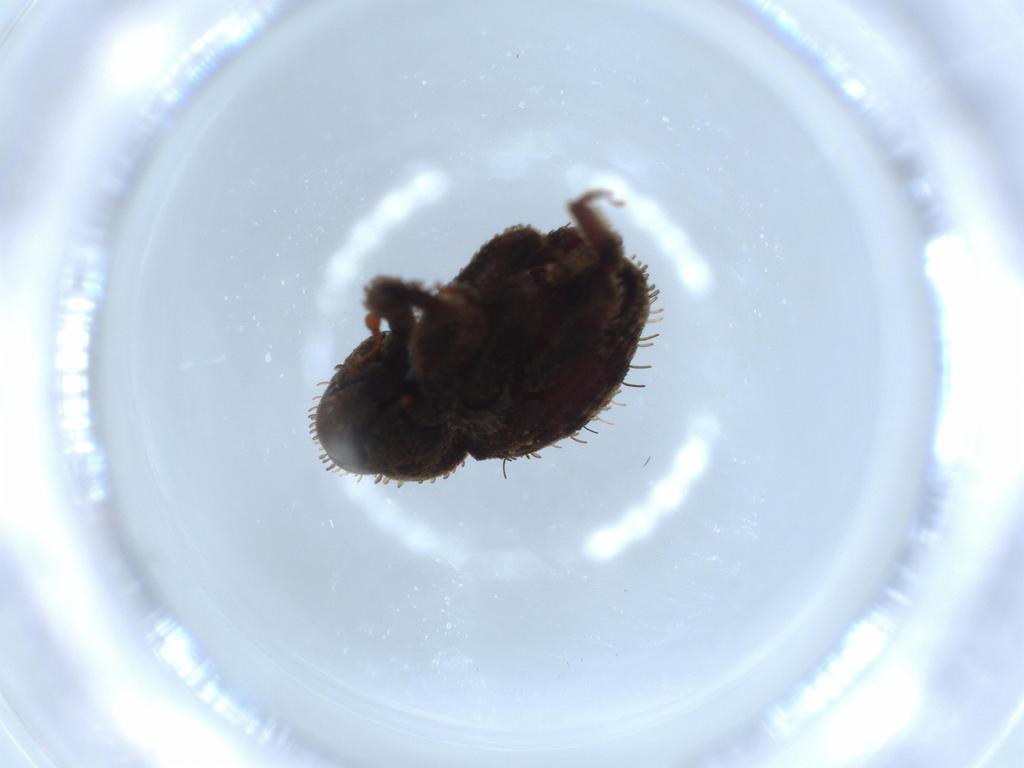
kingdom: Animalia
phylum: Arthropoda
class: Insecta
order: Coleoptera
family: Cleridae
